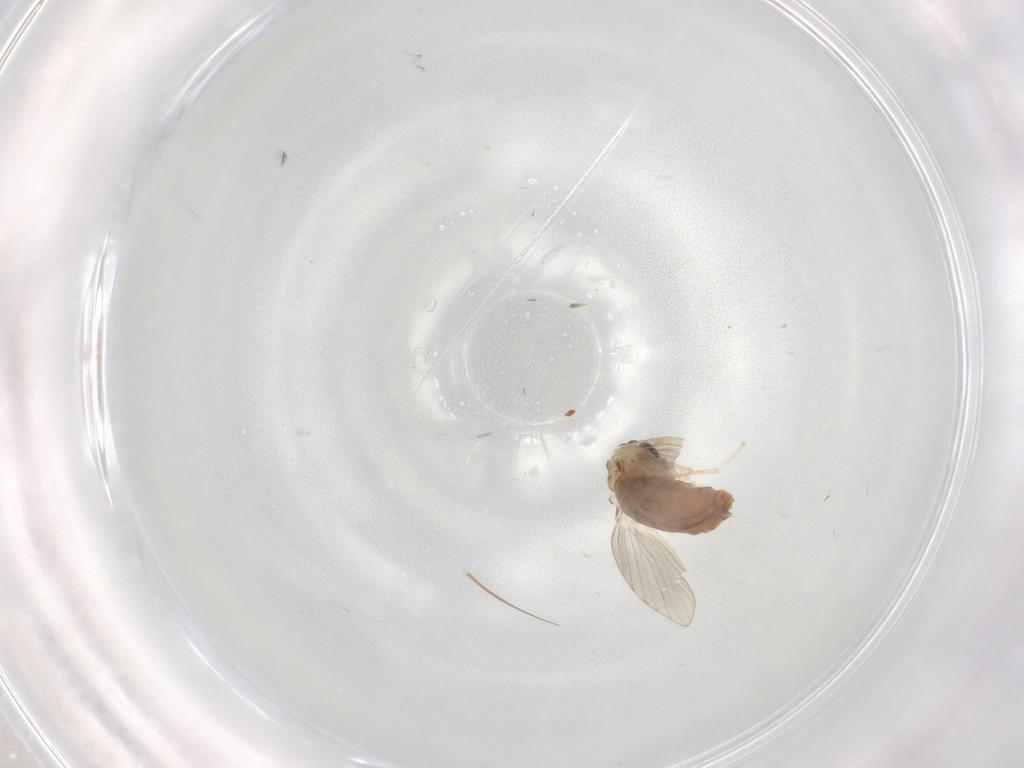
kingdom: Animalia
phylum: Arthropoda
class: Insecta
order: Diptera
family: Psychodidae
